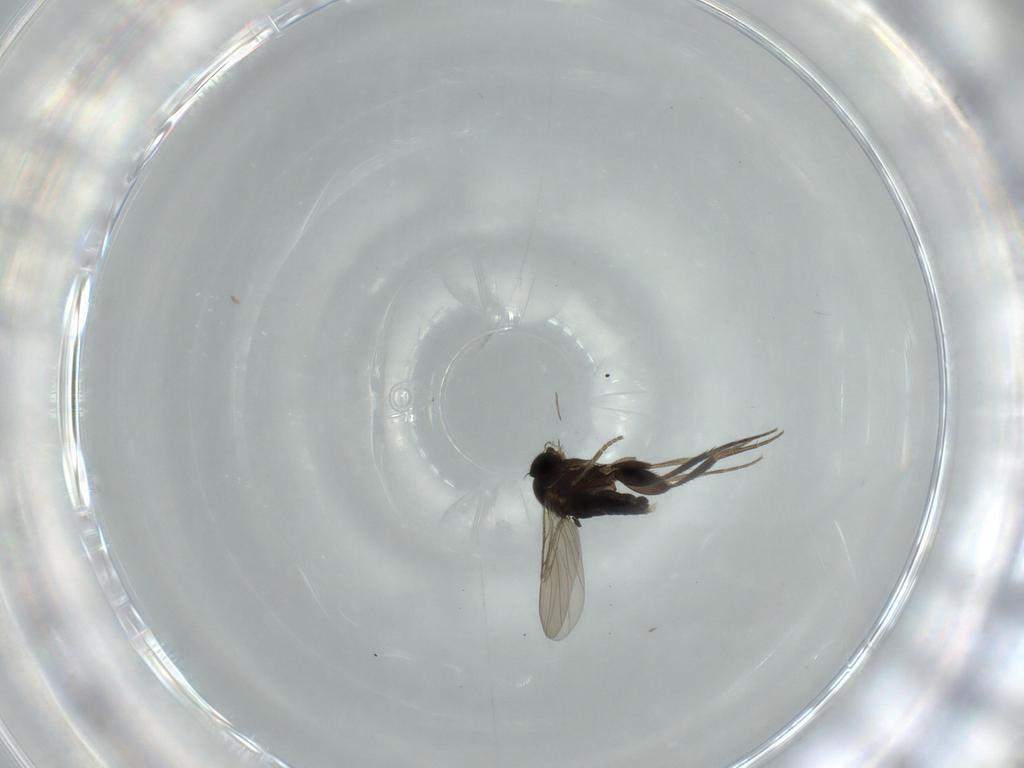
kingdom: Animalia
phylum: Arthropoda
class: Insecta
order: Diptera
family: Phoridae
